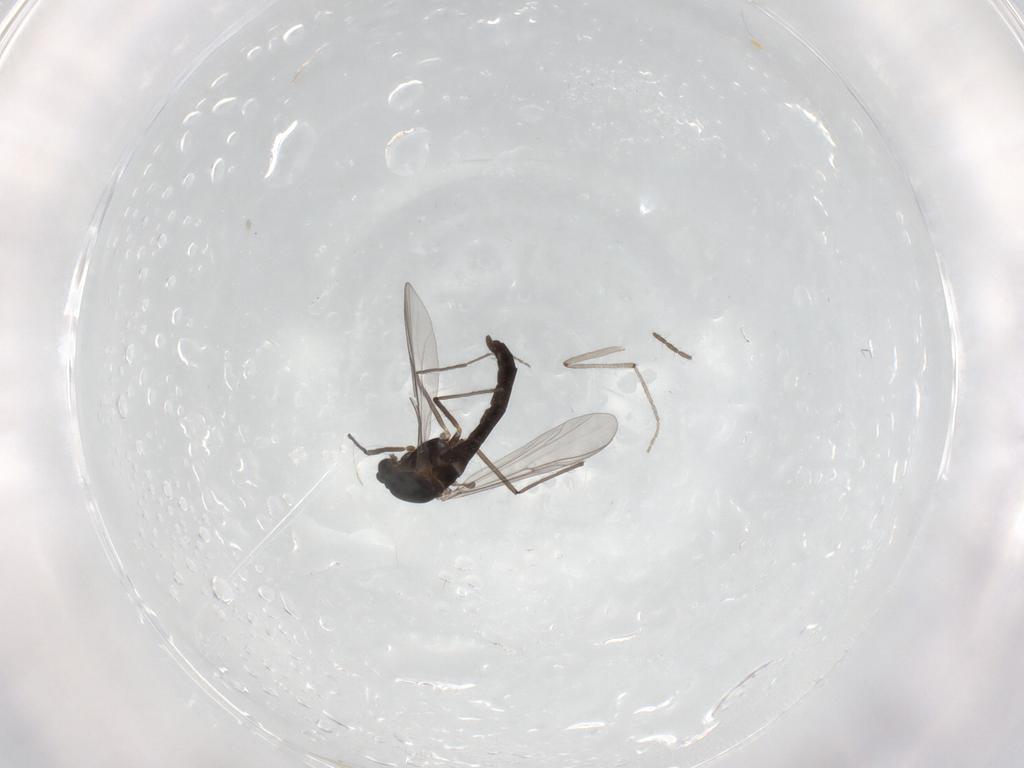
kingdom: Animalia
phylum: Arthropoda
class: Insecta
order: Diptera
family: Chironomidae
